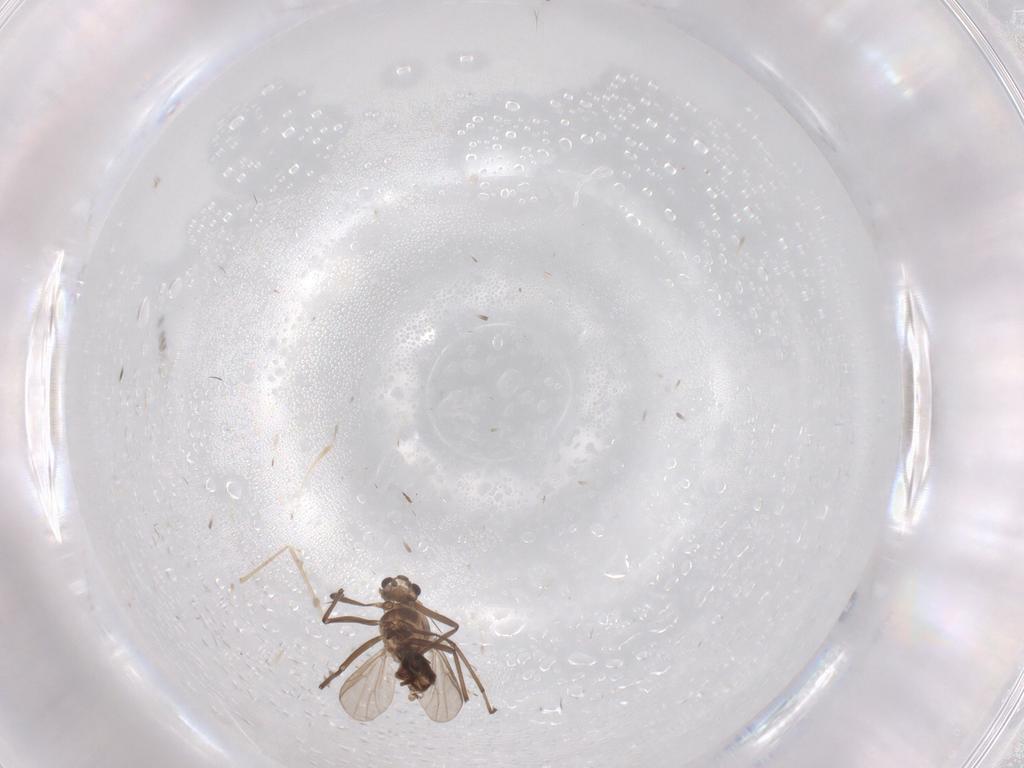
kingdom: Animalia
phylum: Arthropoda
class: Insecta
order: Diptera
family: Chironomidae
